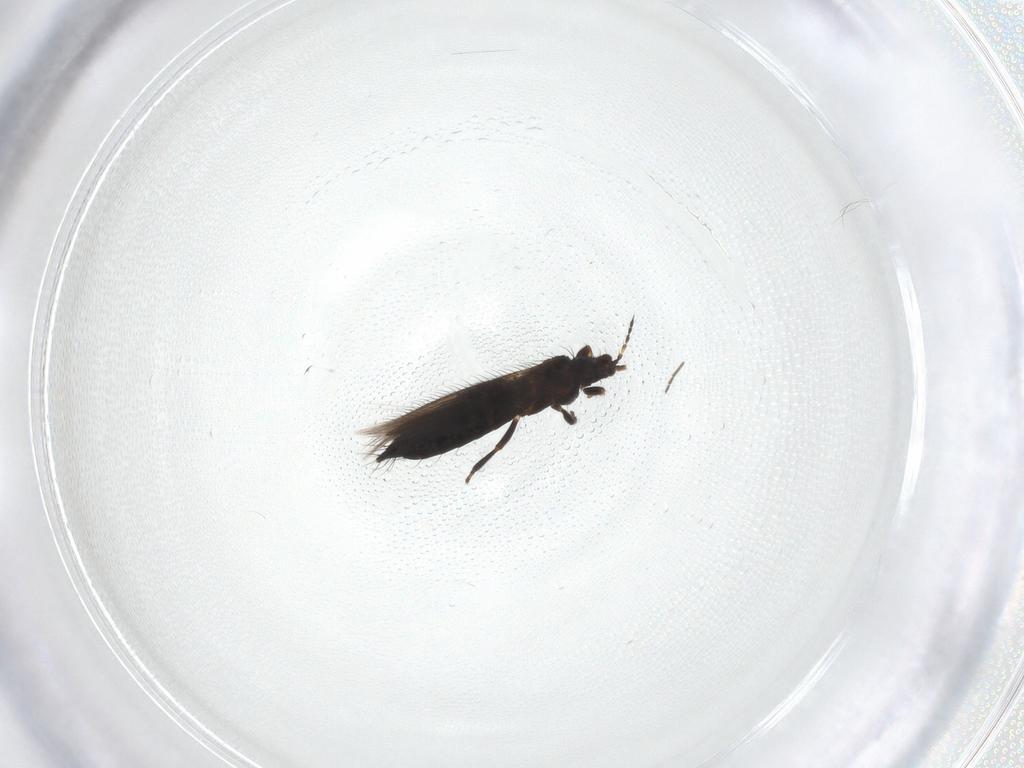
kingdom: Animalia
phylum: Arthropoda
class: Insecta
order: Thysanoptera
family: Thripidae
